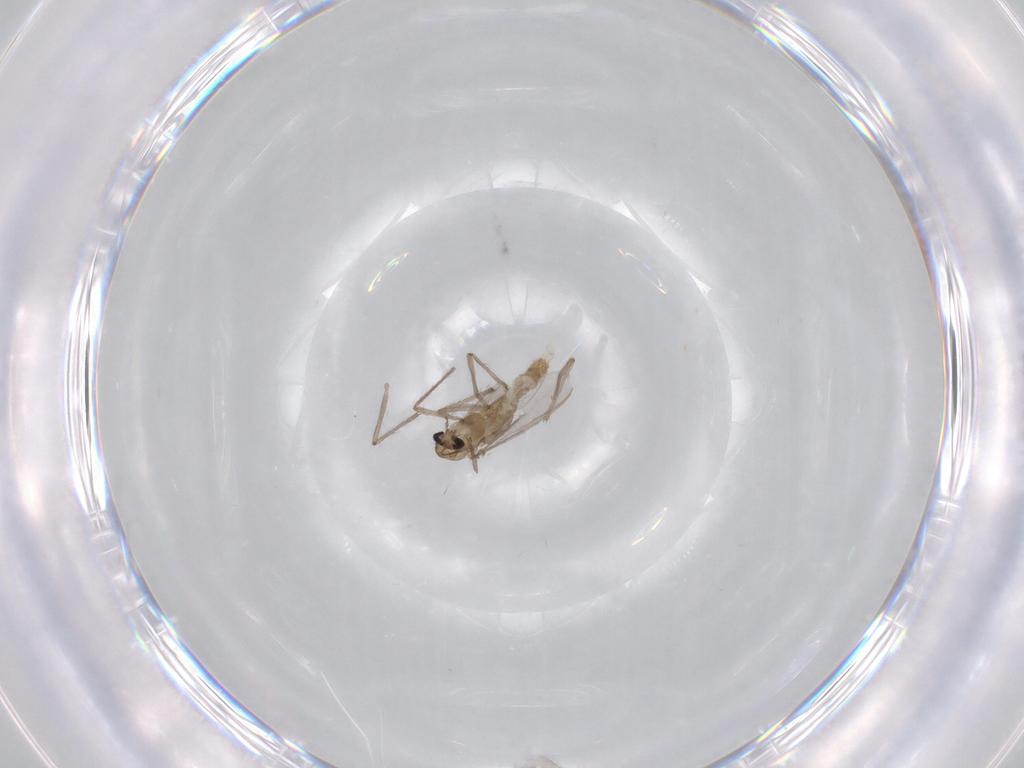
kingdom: Animalia
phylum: Arthropoda
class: Insecta
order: Diptera
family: Chironomidae
